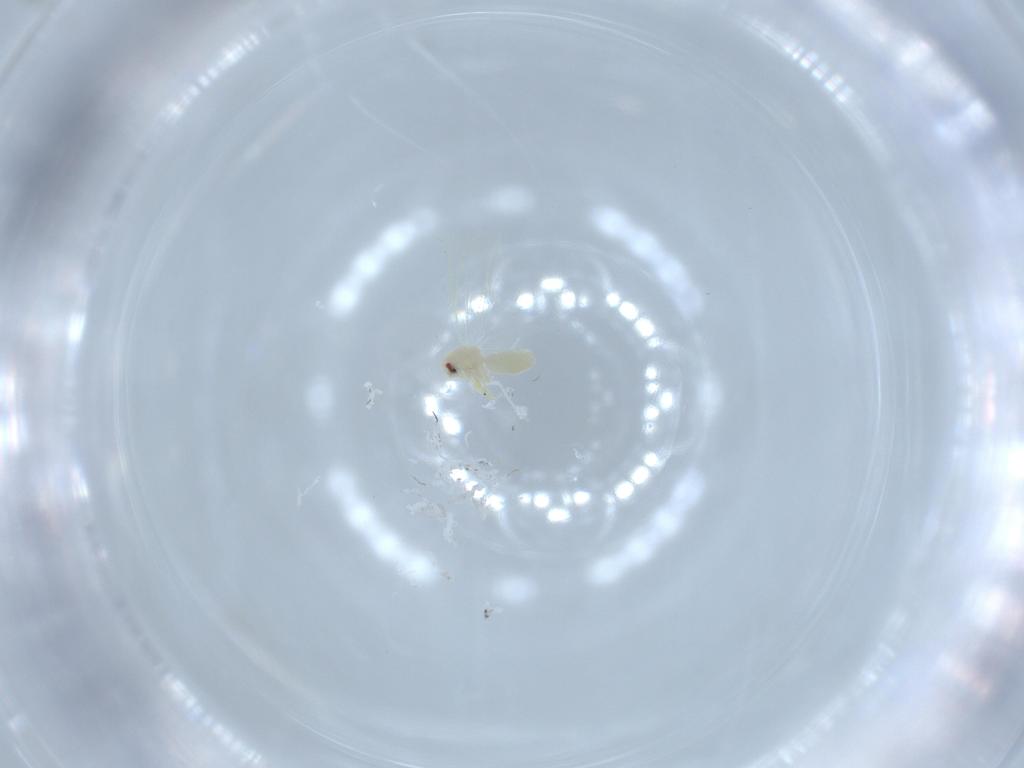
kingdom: Animalia
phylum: Arthropoda
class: Insecta
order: Hemiptera
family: Aleyrodidae
